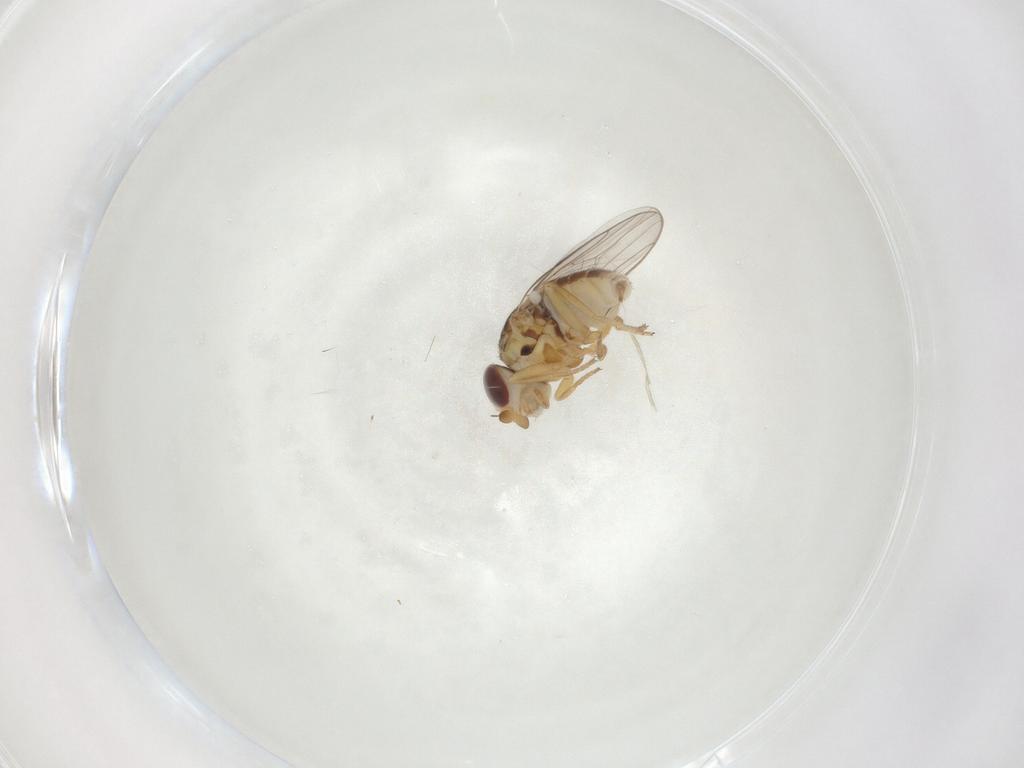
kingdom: Animalia
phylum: Arthropoda
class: Insecta
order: Diptera
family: Chloropidae
